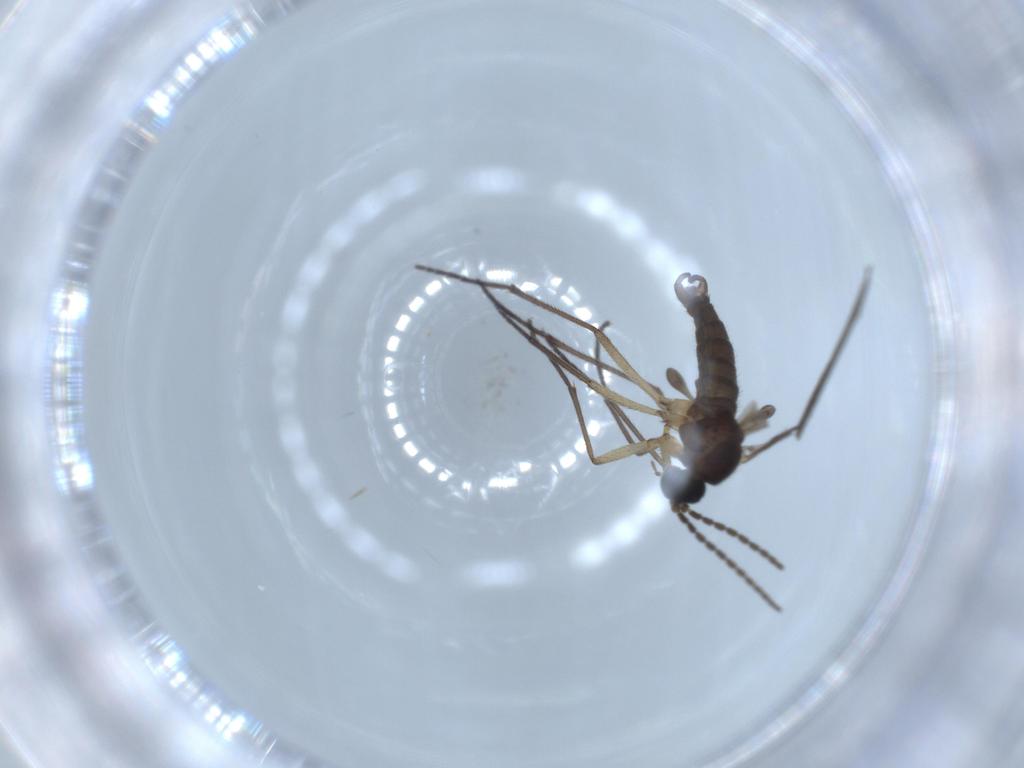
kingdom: Animalia
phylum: Arthropoda
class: Insecta
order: Diptera
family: Sciaridae
